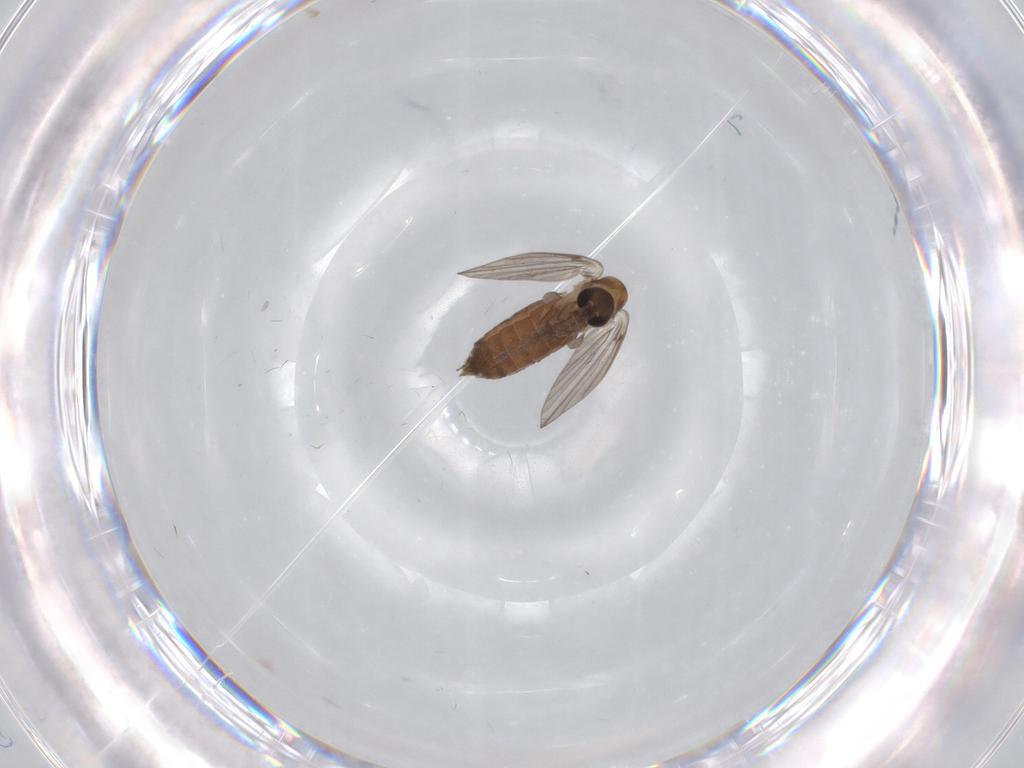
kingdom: Animalia
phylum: Arthropoda
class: Insecta
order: Diptera
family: Psychodidae
